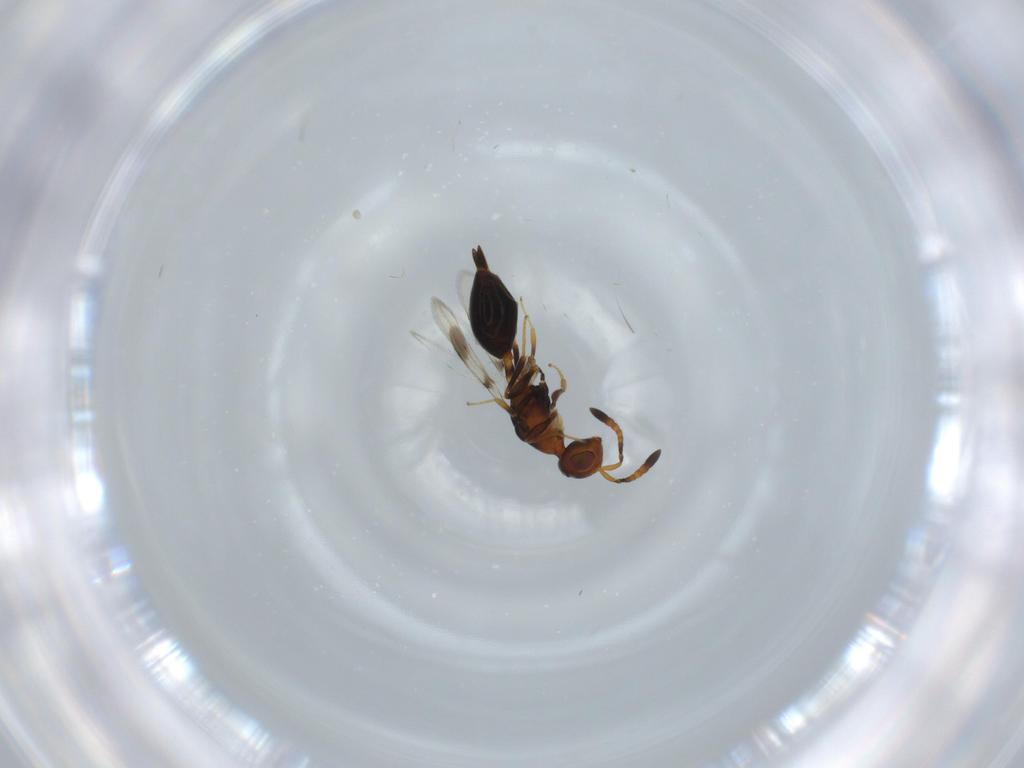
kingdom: Animalia
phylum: Arthropoda
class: Insecta
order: Hymenoptera
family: Cerocephalidae
